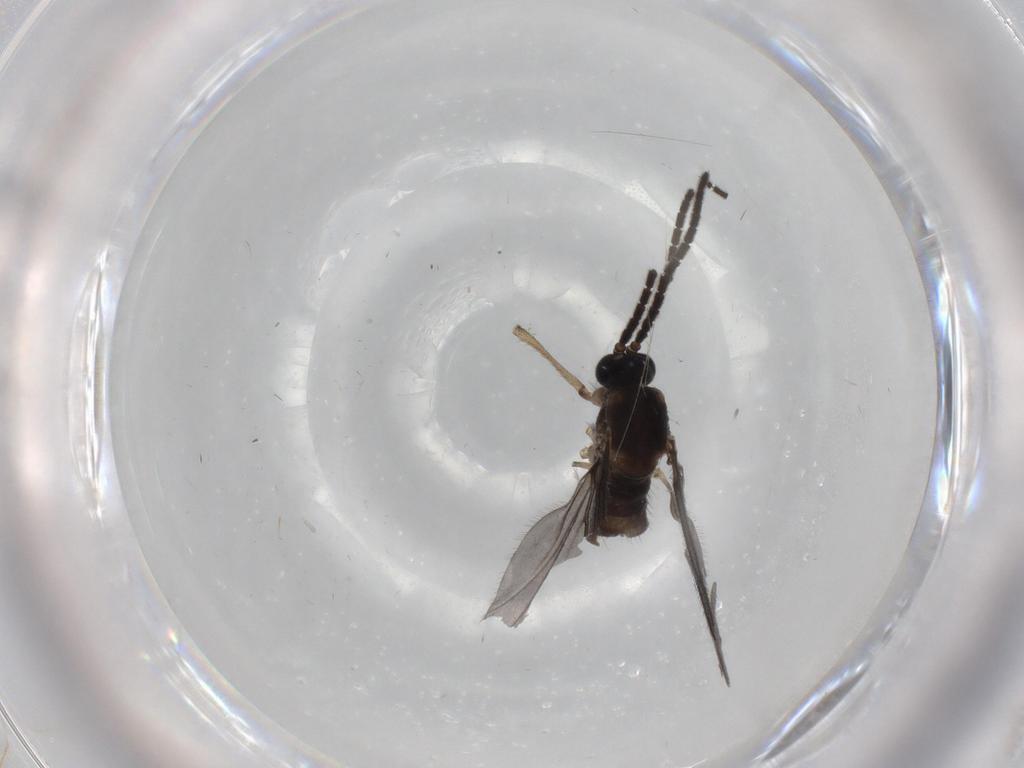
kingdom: Animalia
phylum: Arthropoda
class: Insecta
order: Diptera
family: Sciaridae
